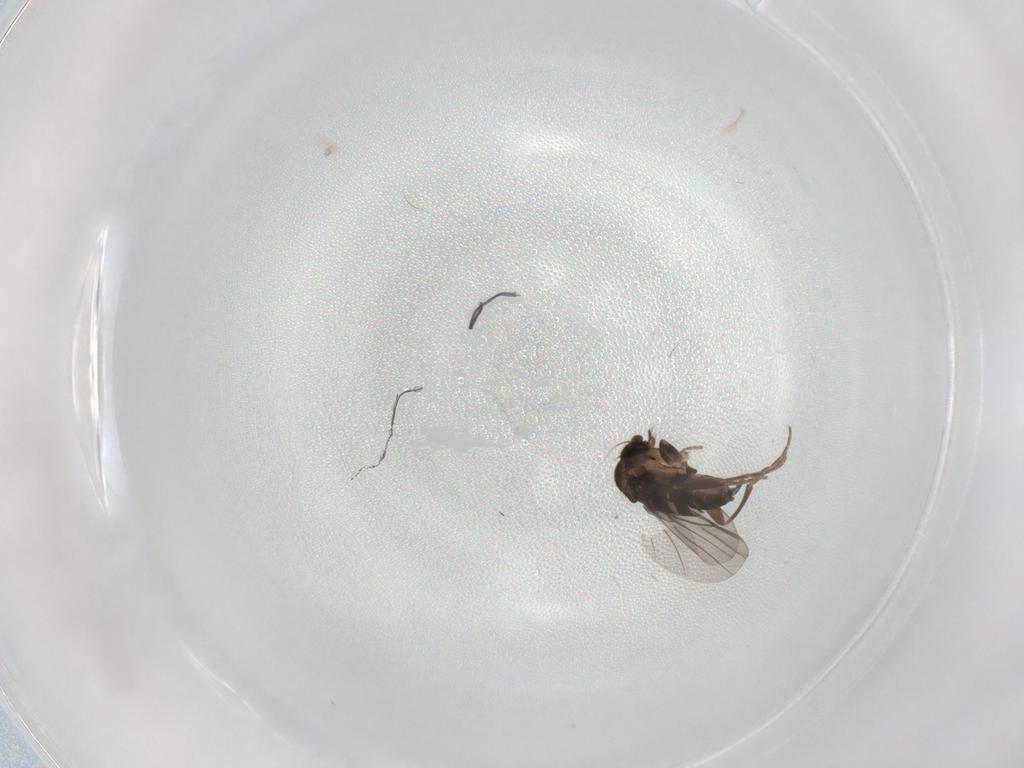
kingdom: Animalia
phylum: Arthropoda
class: Insecta
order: Diptera
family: Phoridae
